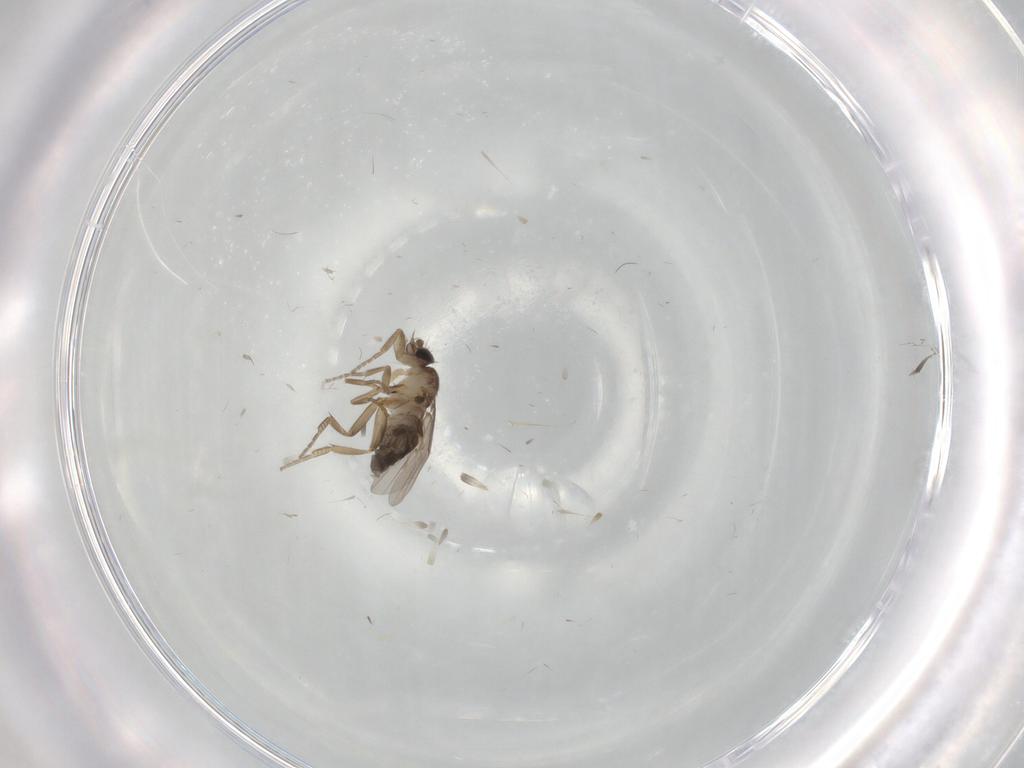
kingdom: Animalia
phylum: Arthropoda
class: Insecta
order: Diptera
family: Phoridae
